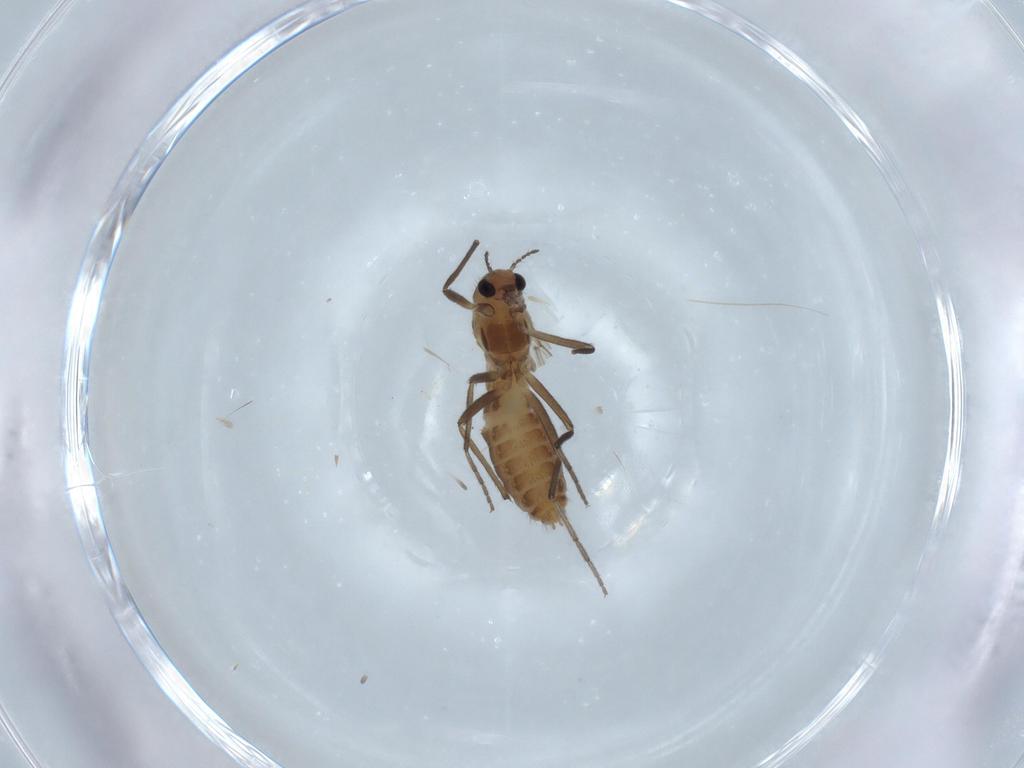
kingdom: Animalia
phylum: Arthropoda
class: Insecta
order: Diptera
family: Chironomidae
